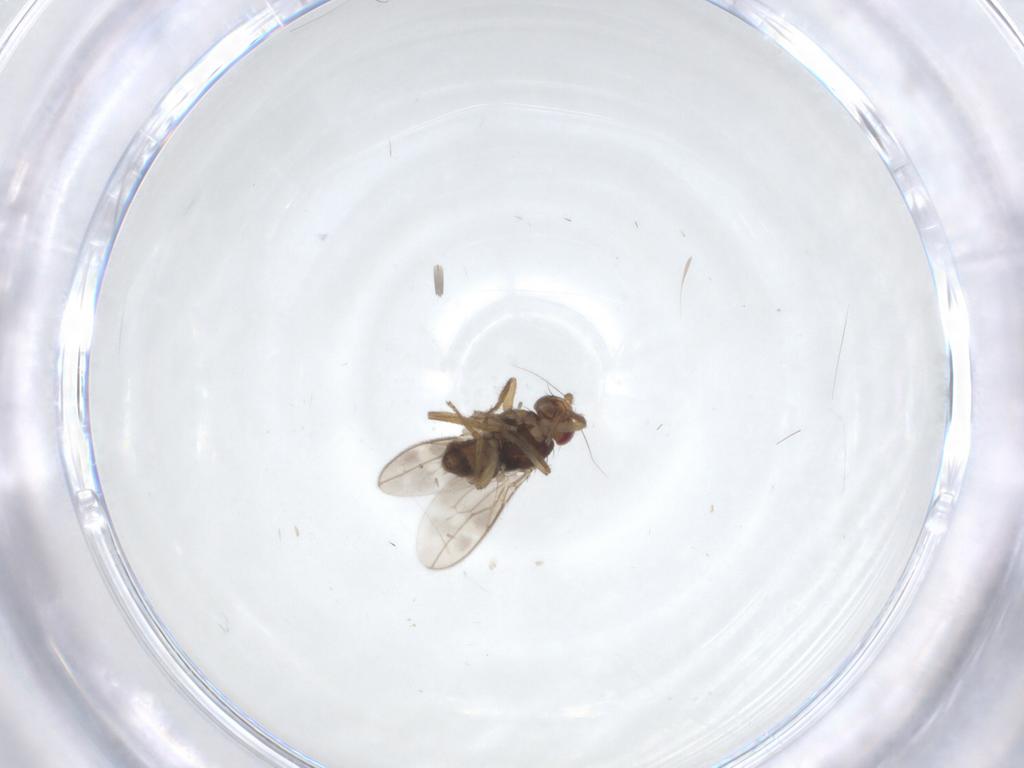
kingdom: Animalia
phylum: Arthropoda
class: Insecta
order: Diptera
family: Sphaeroceridae
